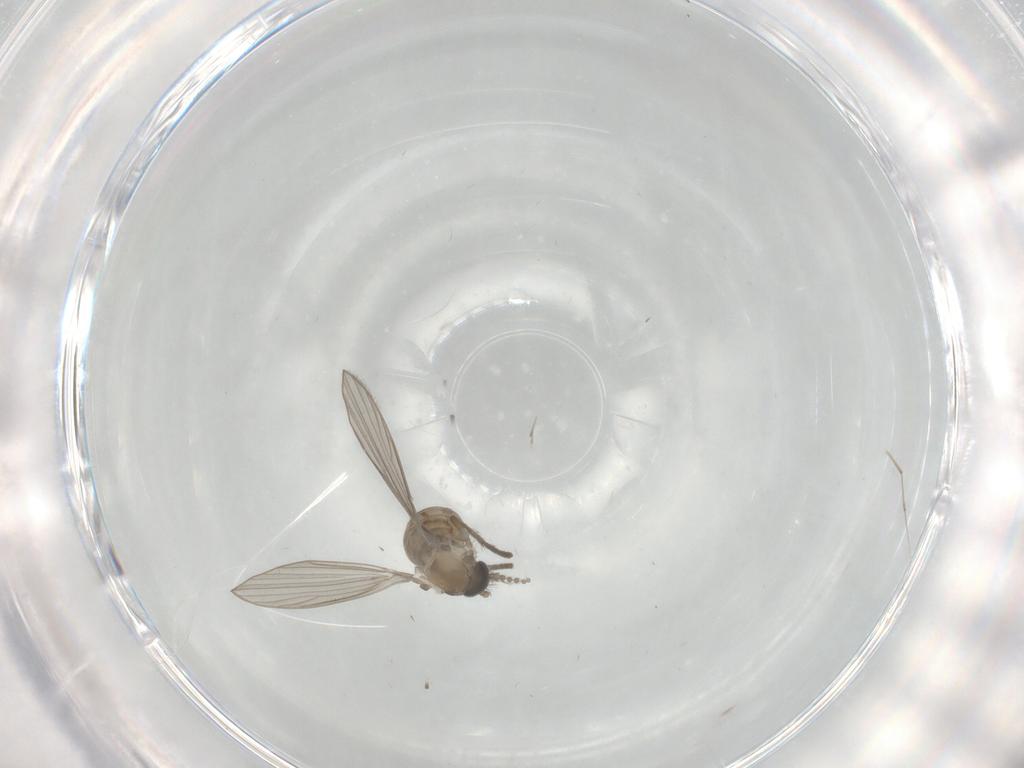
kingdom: Animalia
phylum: Arthropoda
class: Insecta
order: Diptera
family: Psychodidae
